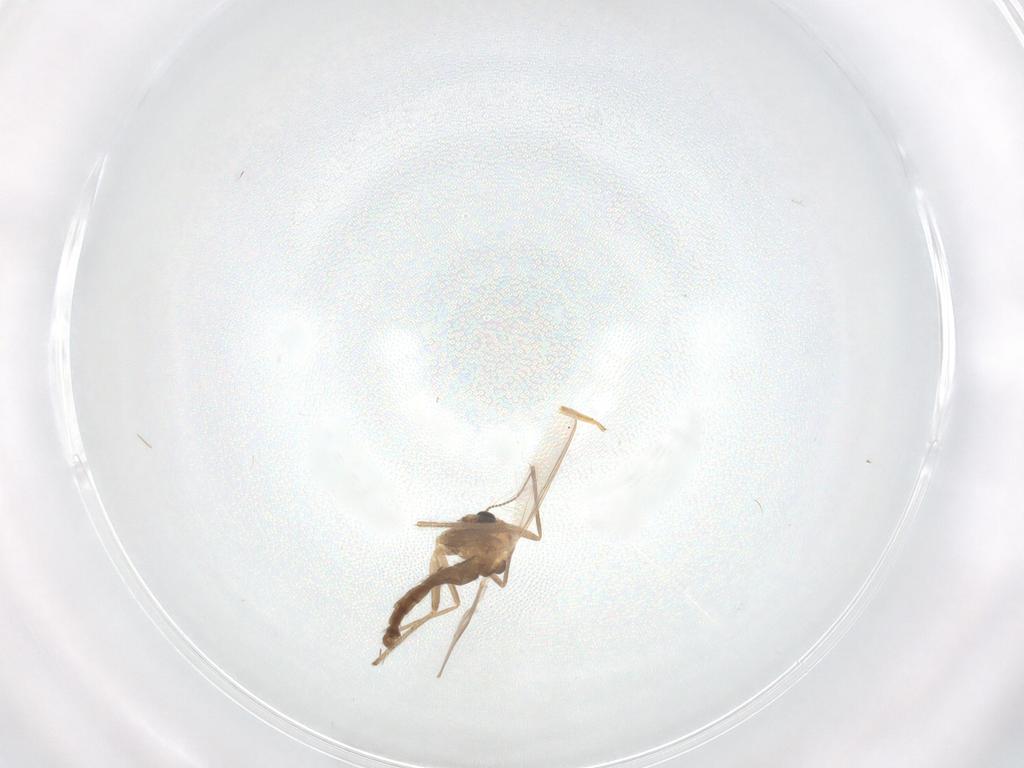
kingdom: Animalia
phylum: Arthropoda
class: Insecta
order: Diptera
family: Chironomidae
